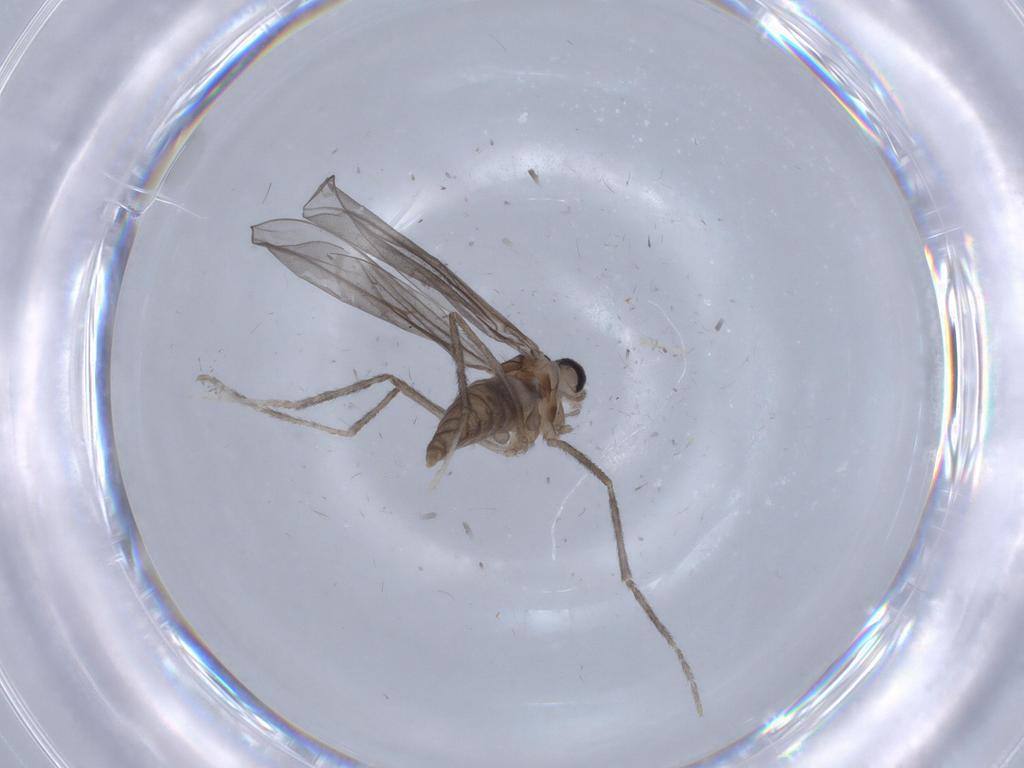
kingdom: Animalia
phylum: Arthropoda
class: Insecta
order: Diptera
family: Cecidomyiidae
